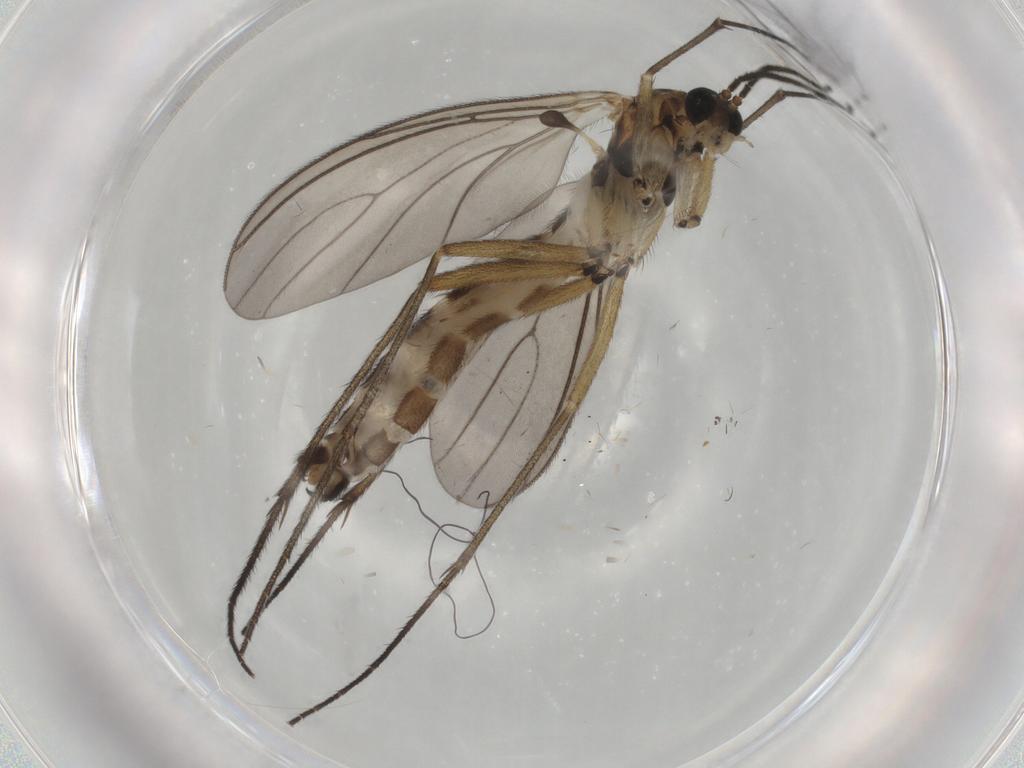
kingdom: Animalia
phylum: Arthropoda
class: Insecta
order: Diptera
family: Sciaridae
